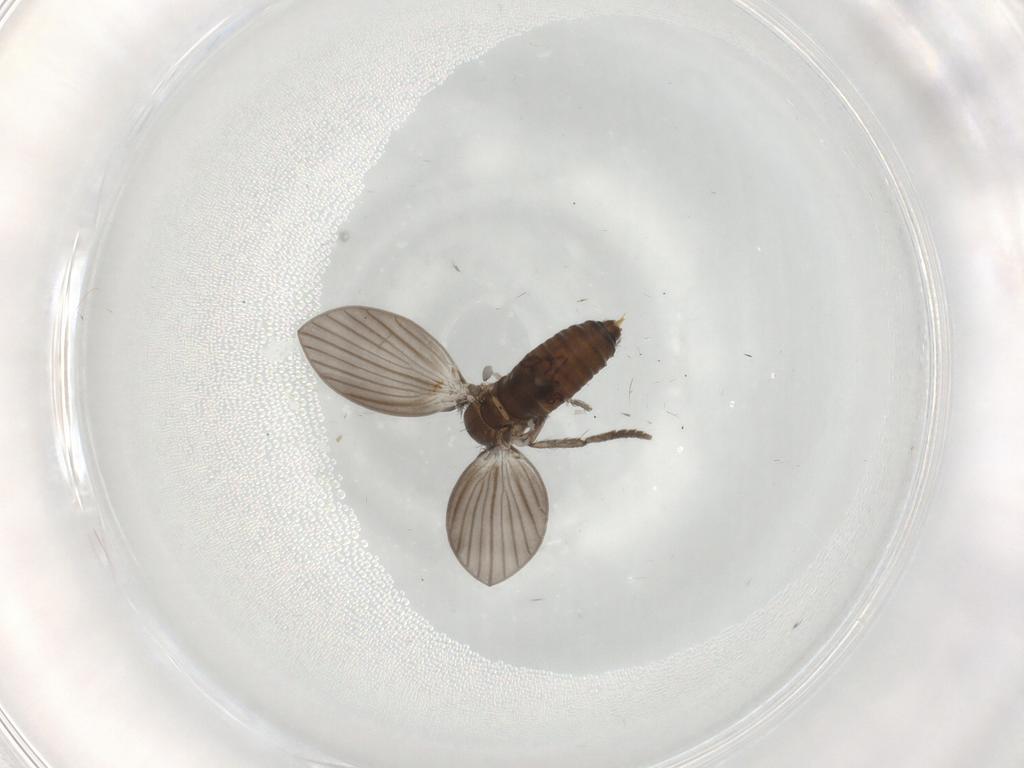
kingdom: Animalia
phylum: Arthropoda
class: Insecta
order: Diptera
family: Psychodidae
